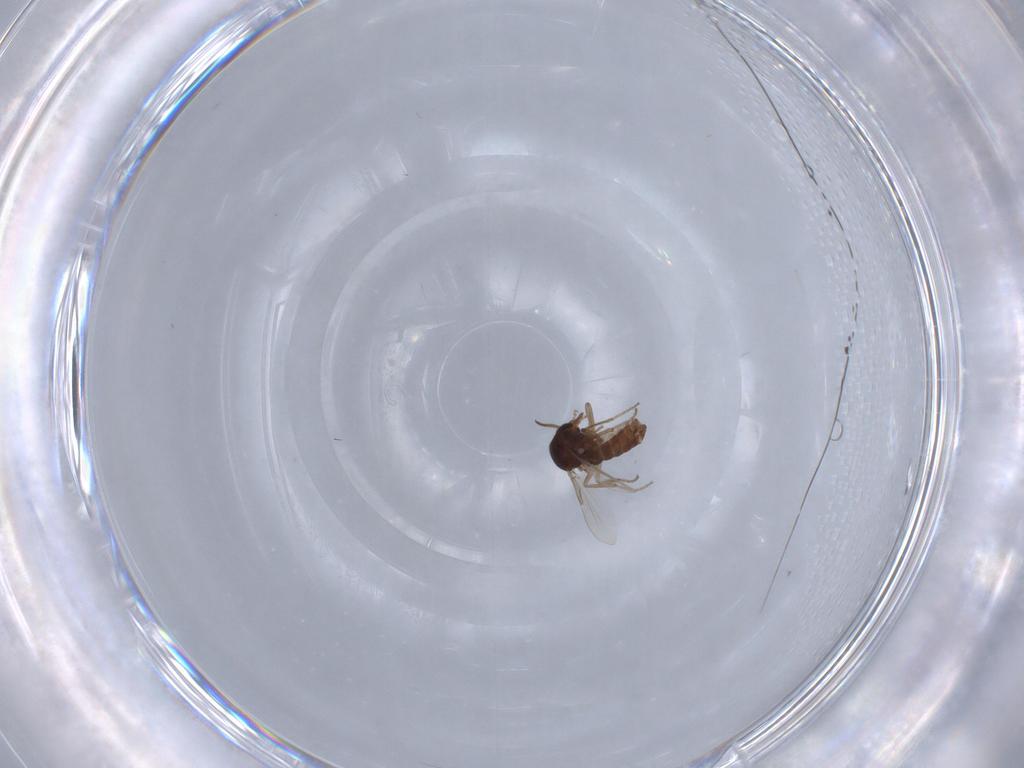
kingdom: Animalia
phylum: Arthropoda
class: Insecta
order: Diptera
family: Ceratopogonidae
